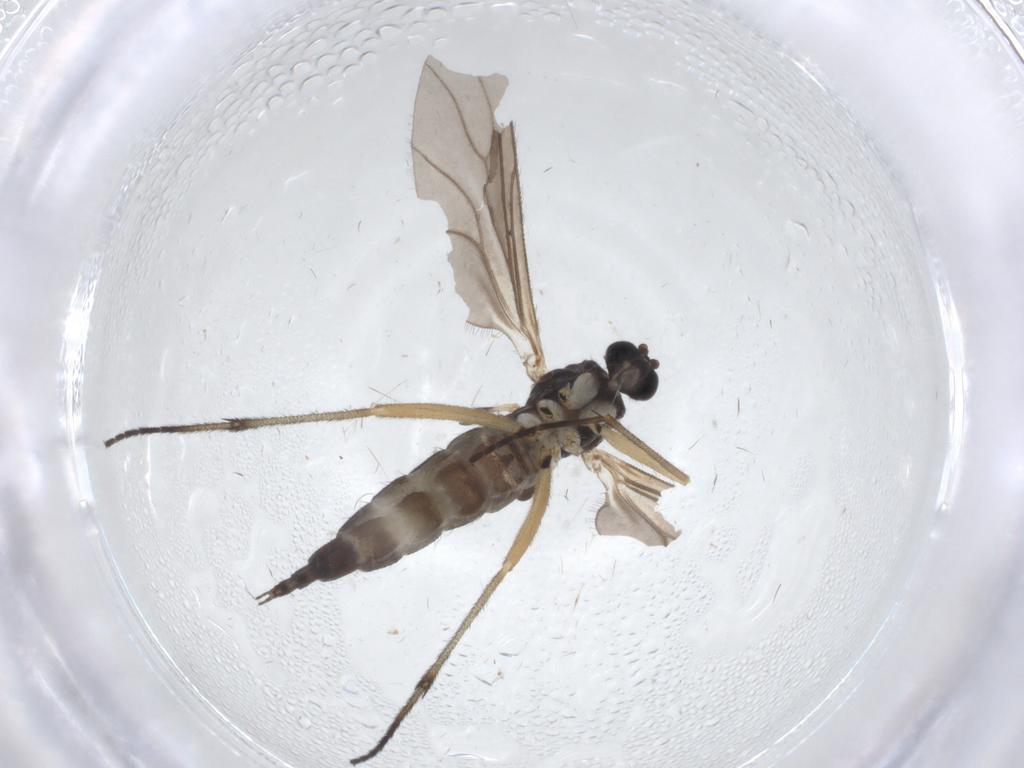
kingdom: Animalia
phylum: Arthropoda
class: Insecta
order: Diptera
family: Sciaridae
